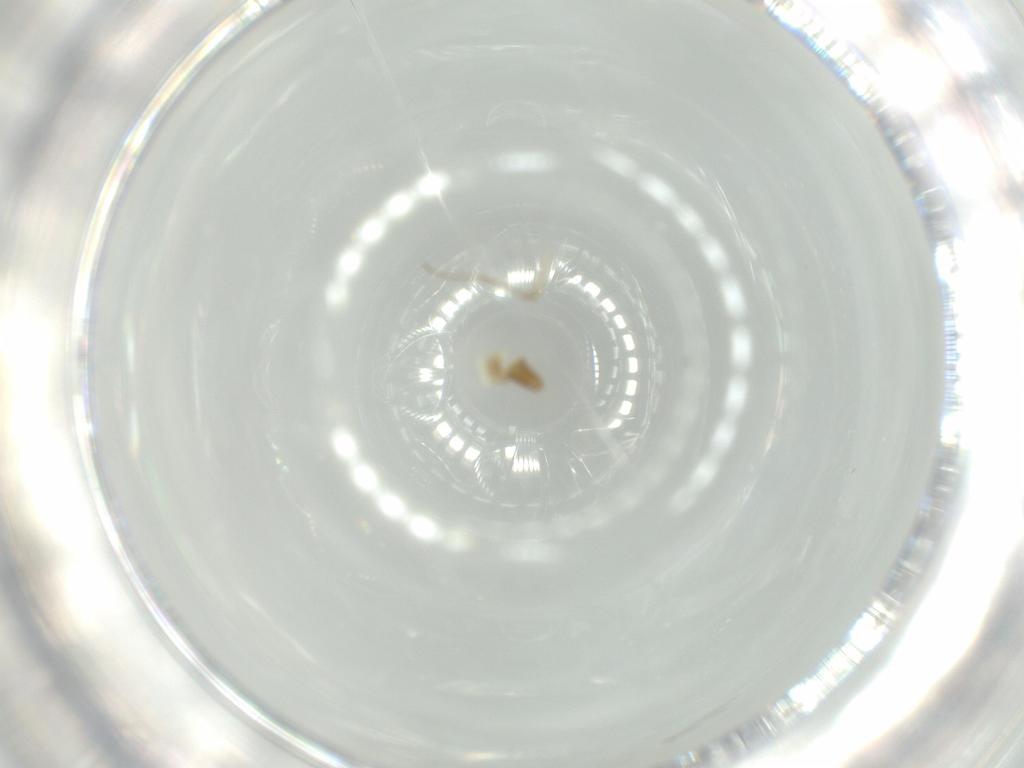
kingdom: Animalia
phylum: Arthropoda
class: Insecta
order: Diptera
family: Chironomidae
